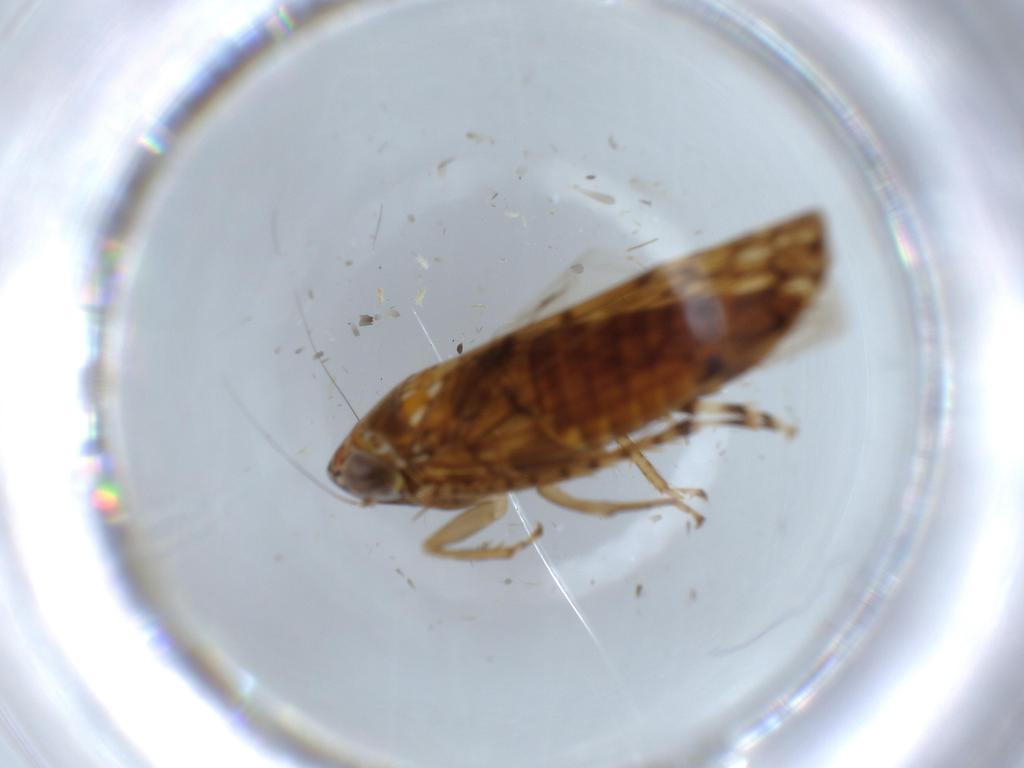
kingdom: Animalia
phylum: Arthropoda
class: Insecta
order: Hemiptera
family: Cicadellidae
